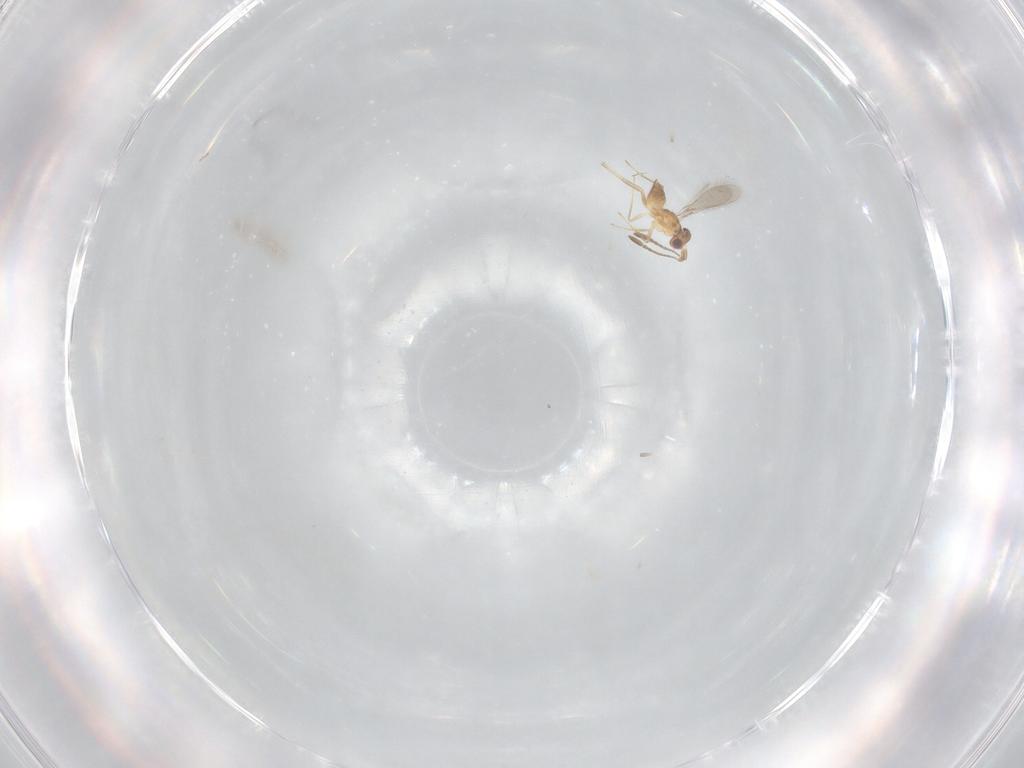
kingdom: Animalia
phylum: Arthropoda
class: Insecta
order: Hymenoptera
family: Mymaridae
